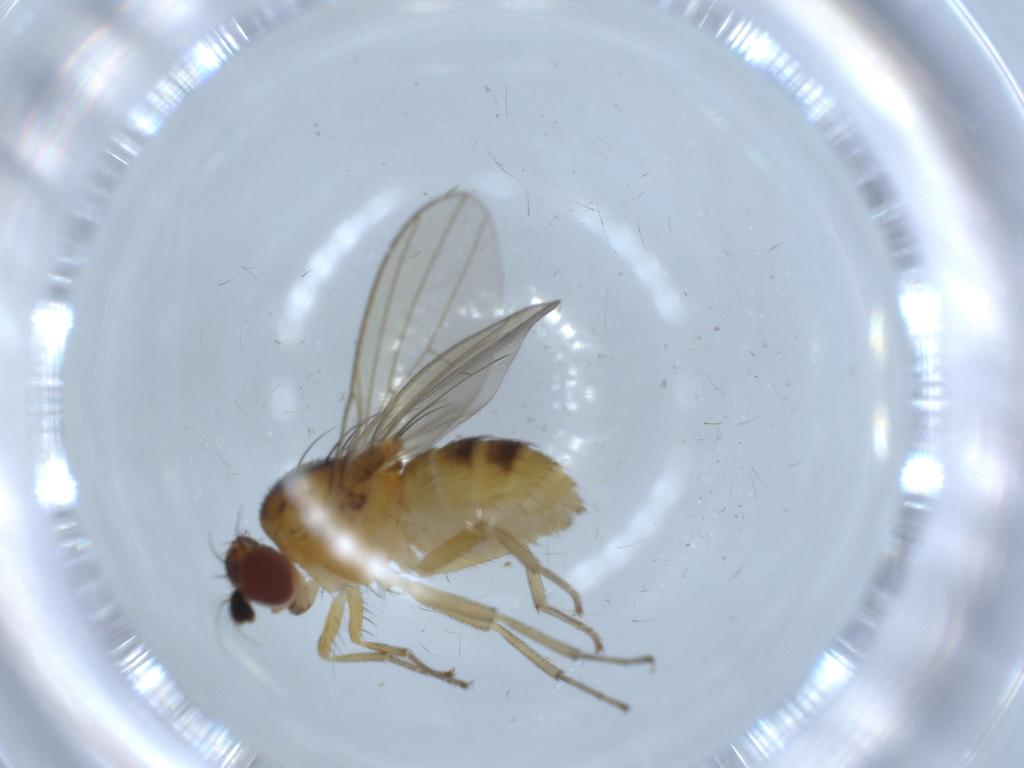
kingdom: Animalia
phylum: Arthropoda
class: Insecta
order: Diptera
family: Lauxaniidae
